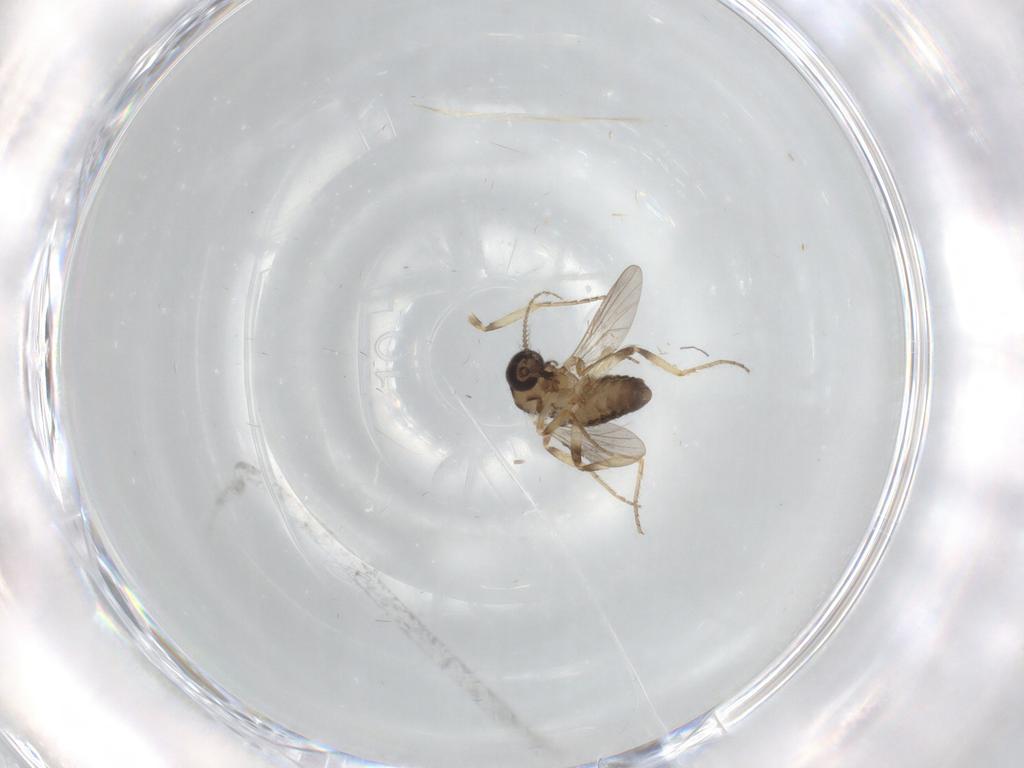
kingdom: Animalia
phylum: Arthropoda
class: Insecta
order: Diptera
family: Ceratopogonidae
